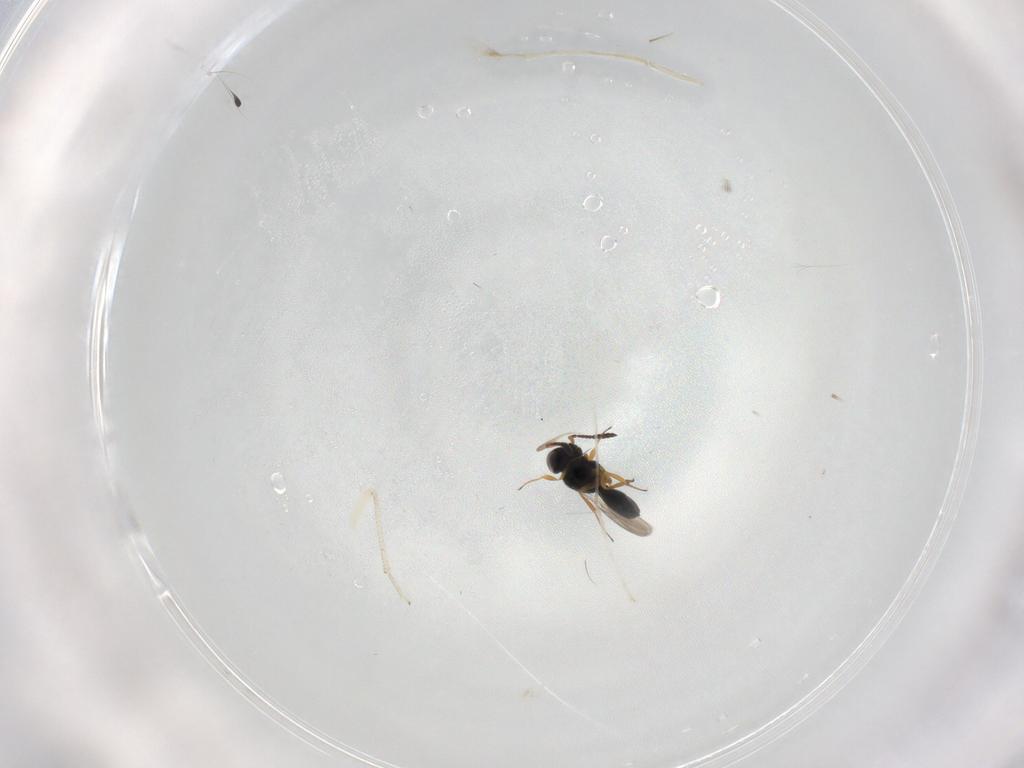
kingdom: Animalia
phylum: Arthropoda
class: Insecta
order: Hymenoptera
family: Scelionidae
